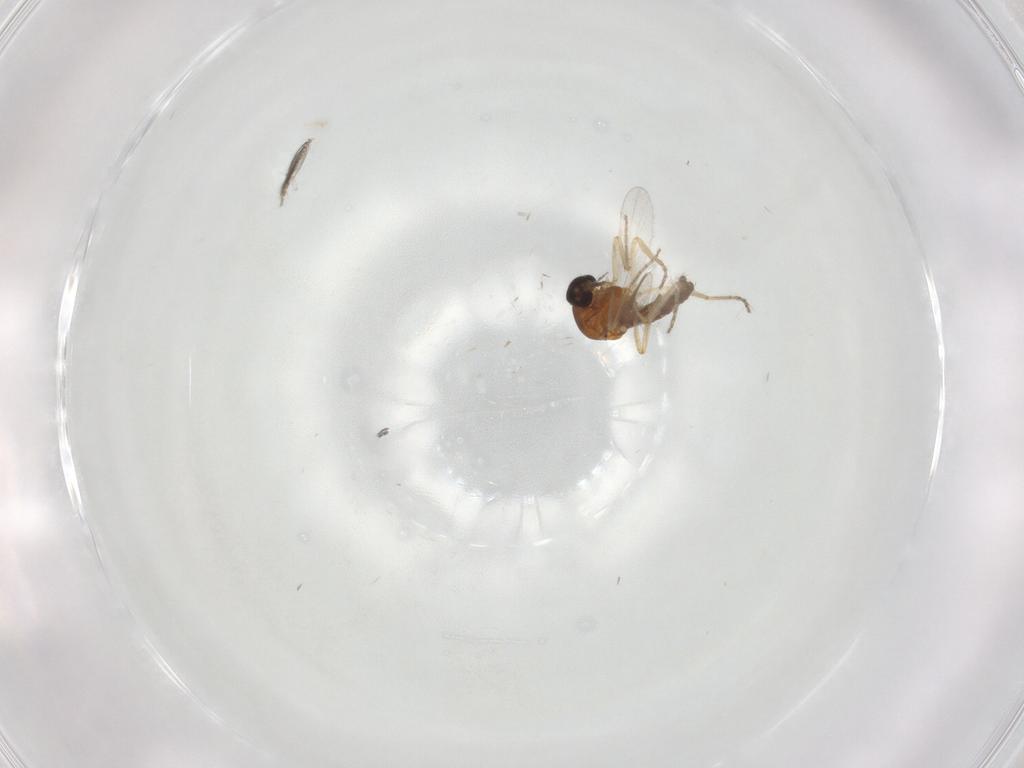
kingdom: Animalia
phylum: Arthropoda
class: Insecta
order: Diptera
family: Ceratopogonidae
